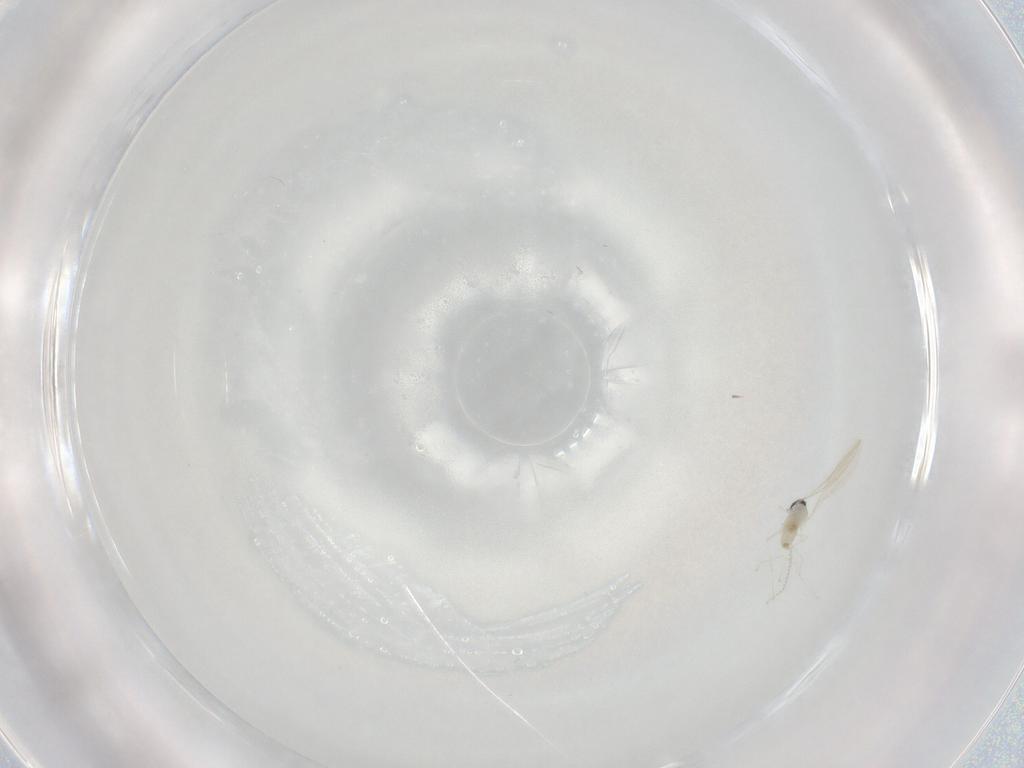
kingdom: Animalia
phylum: Arthropoda
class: Insecta
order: Diptera
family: Cecidomyiidae
